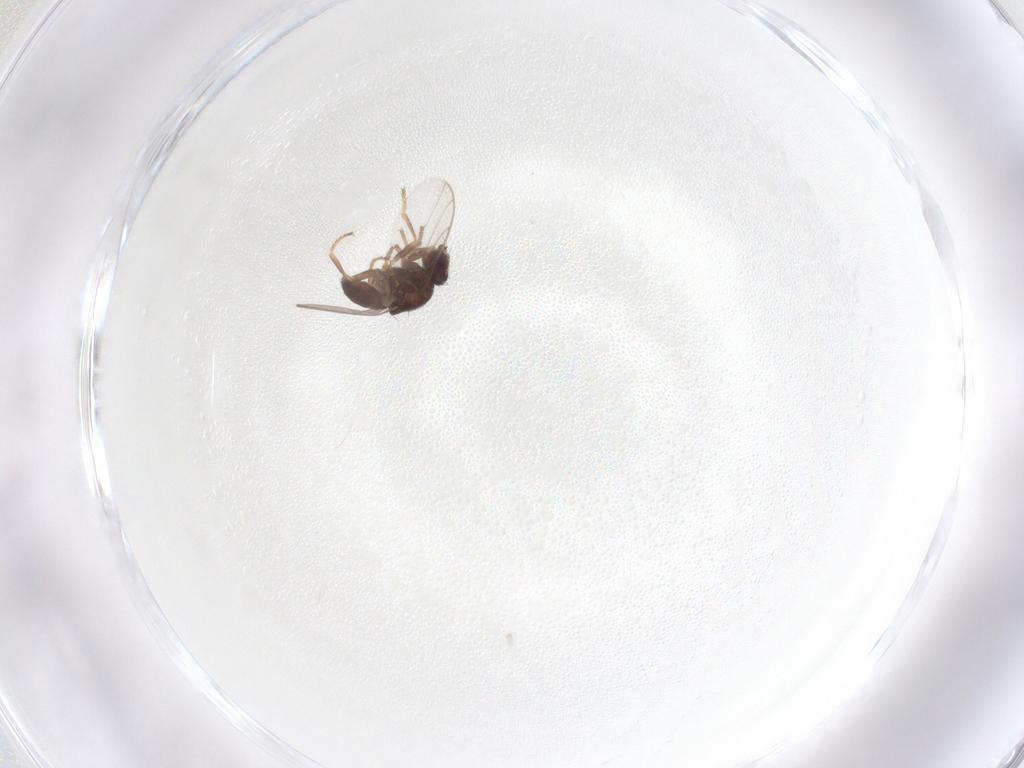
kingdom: Animalia
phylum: Arthropoda
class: Insecta
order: Diptera
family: Chloropidae
